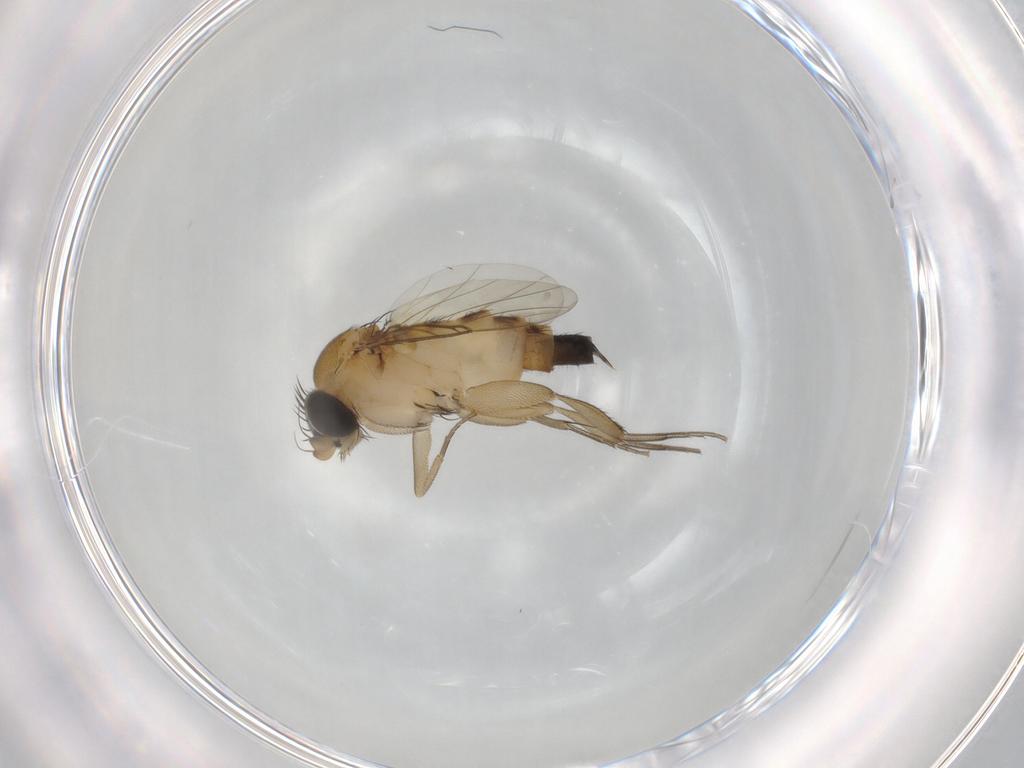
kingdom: Animalia
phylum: Arthropoda
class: Insecta
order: Diptera
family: Phoridae
